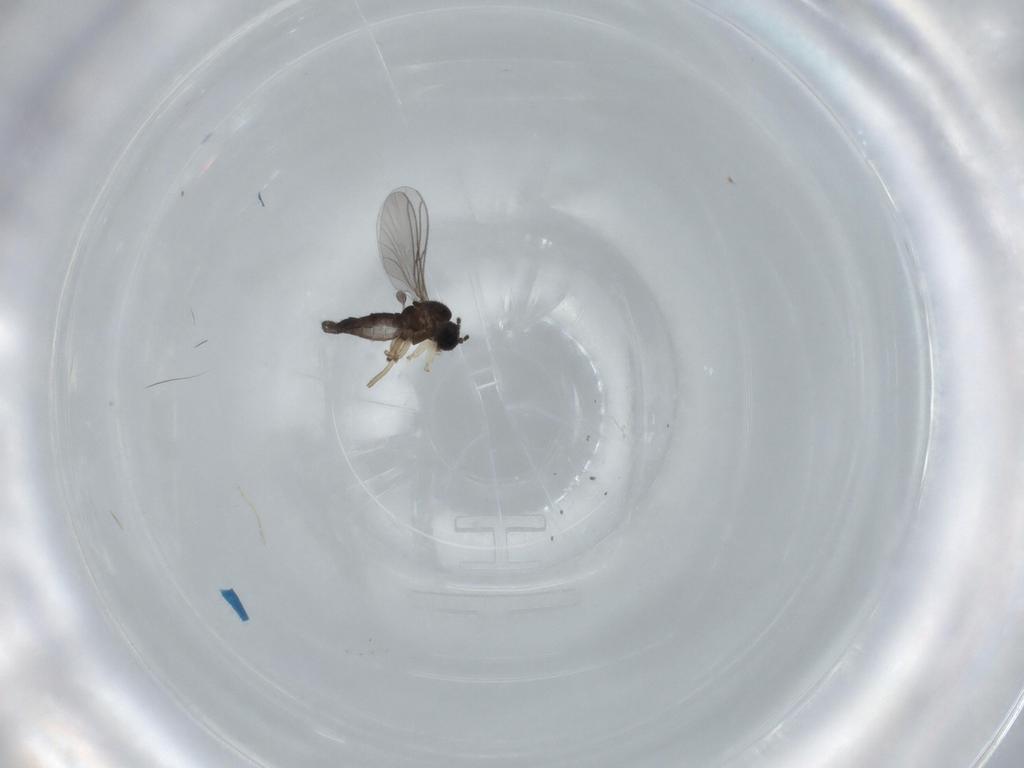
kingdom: Animalia
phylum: Arthropoda
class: Insecta
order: Diptera
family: Sciaridae
